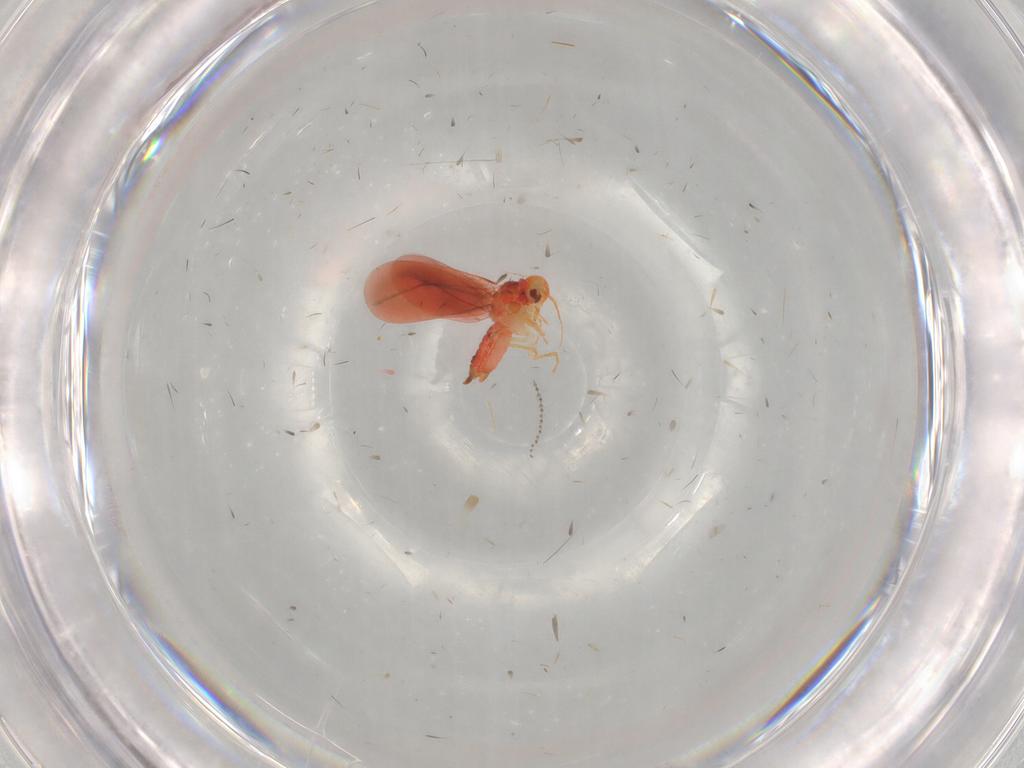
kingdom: Animalia
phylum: Arthropoda
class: Insecta
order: Hemiptera
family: Aleyrodidae
